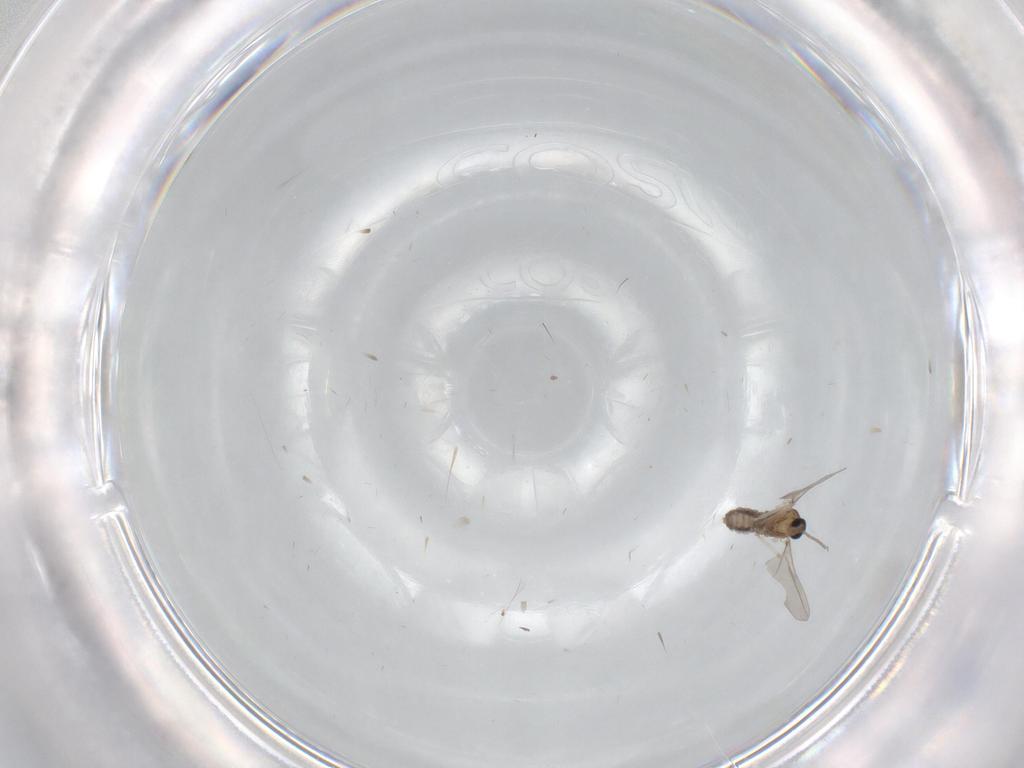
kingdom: Animalia
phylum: Arthropoda
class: Insecta
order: Diptera
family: Cecidomyiidae
